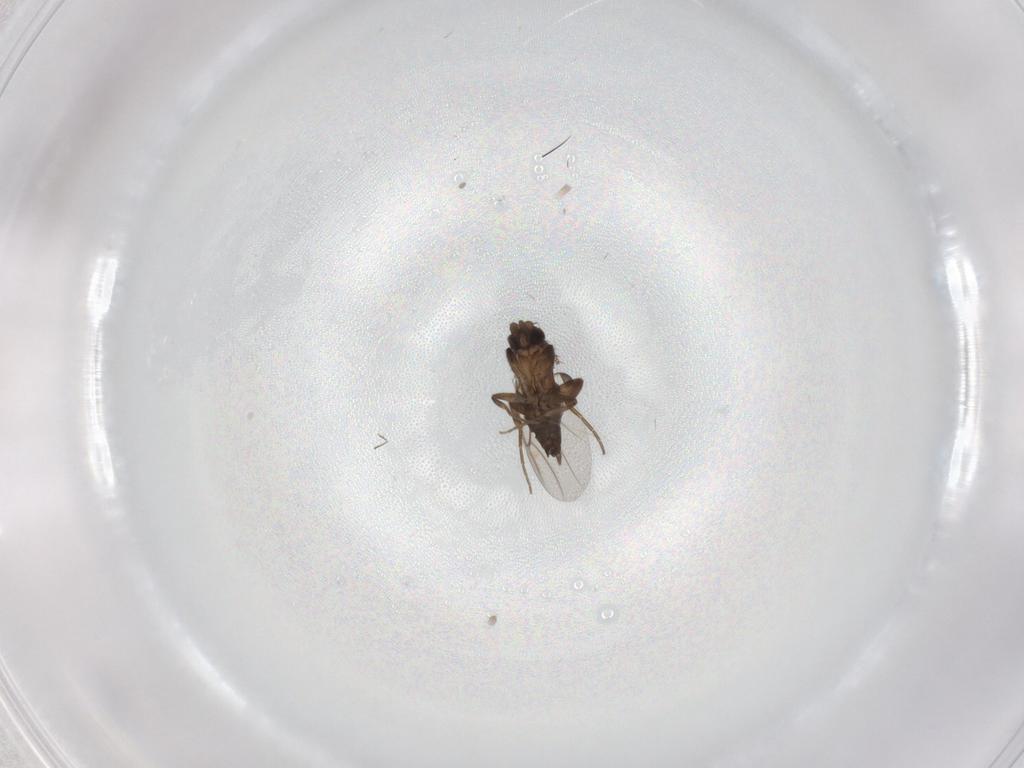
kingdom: Animalia
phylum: Arthropoda
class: Insecta
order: Diptera
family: Phoridae
